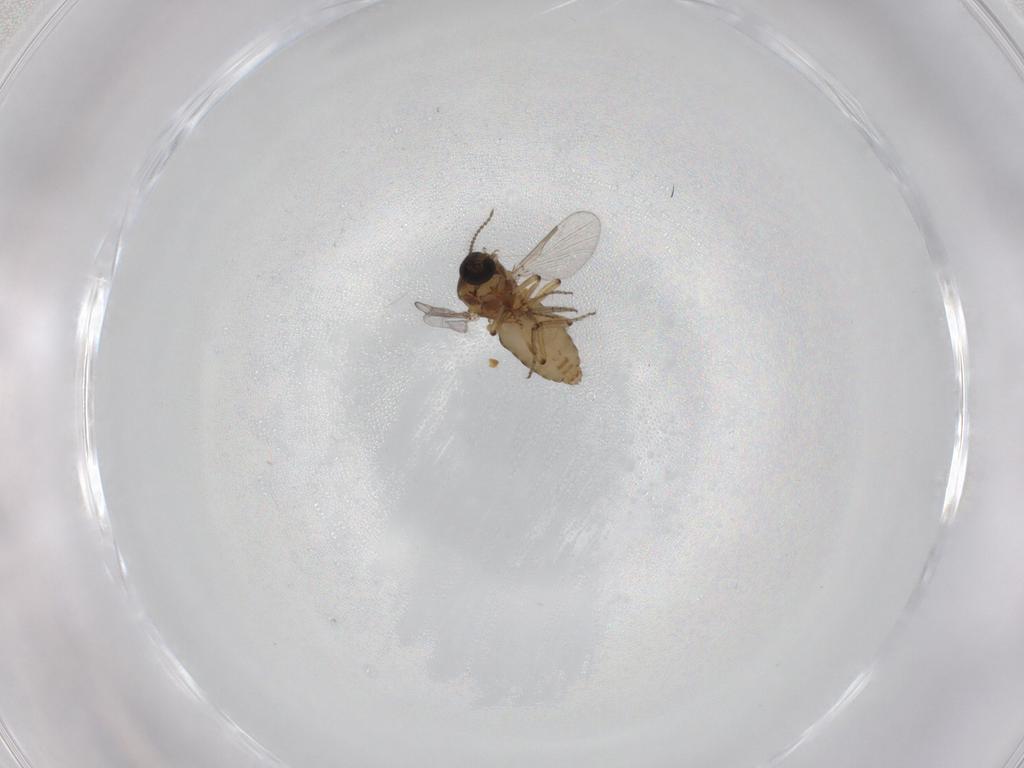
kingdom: Animalia
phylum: Arthropoda
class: Insecta
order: Diptera
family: Ceratopogonidae
